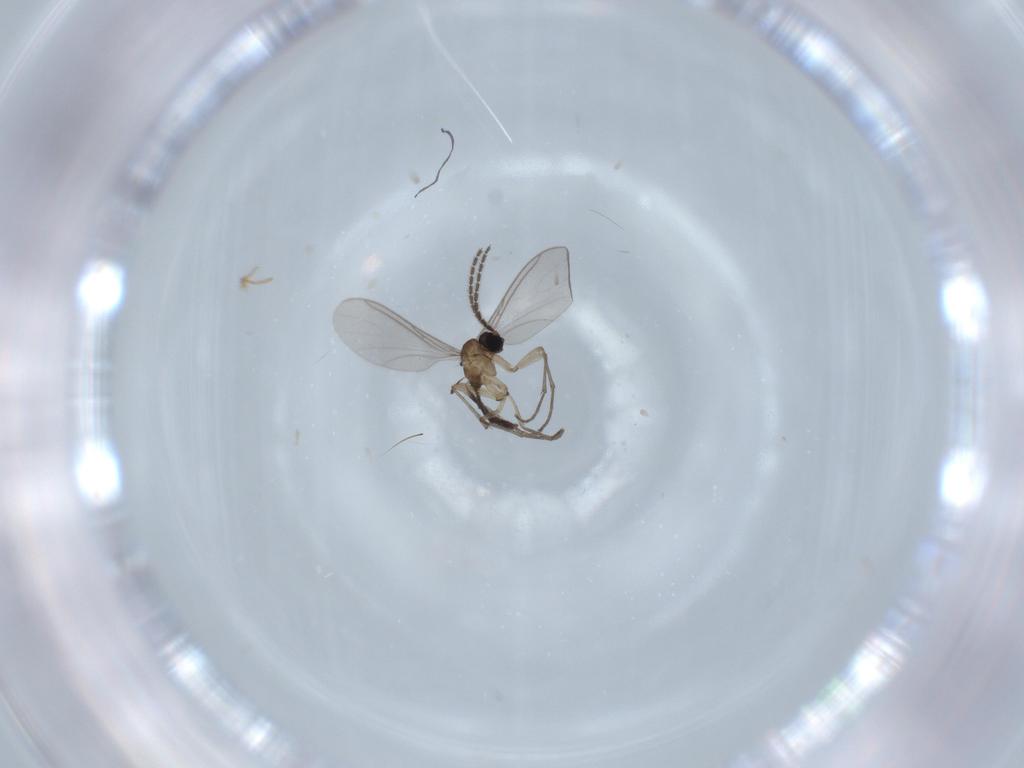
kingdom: Animalia
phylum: Arthropoda
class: Insecta
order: Diptera
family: Sciaridae
